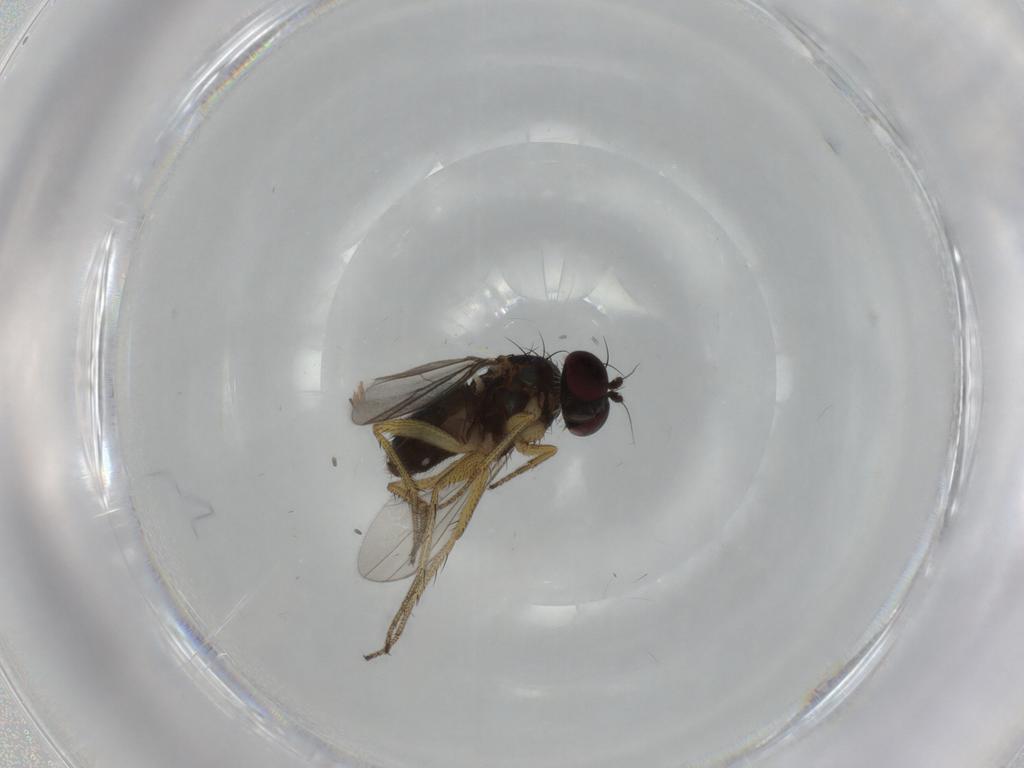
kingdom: Animalia
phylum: Arthropoda
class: Insecta
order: Diptera
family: Dolichopodidae
